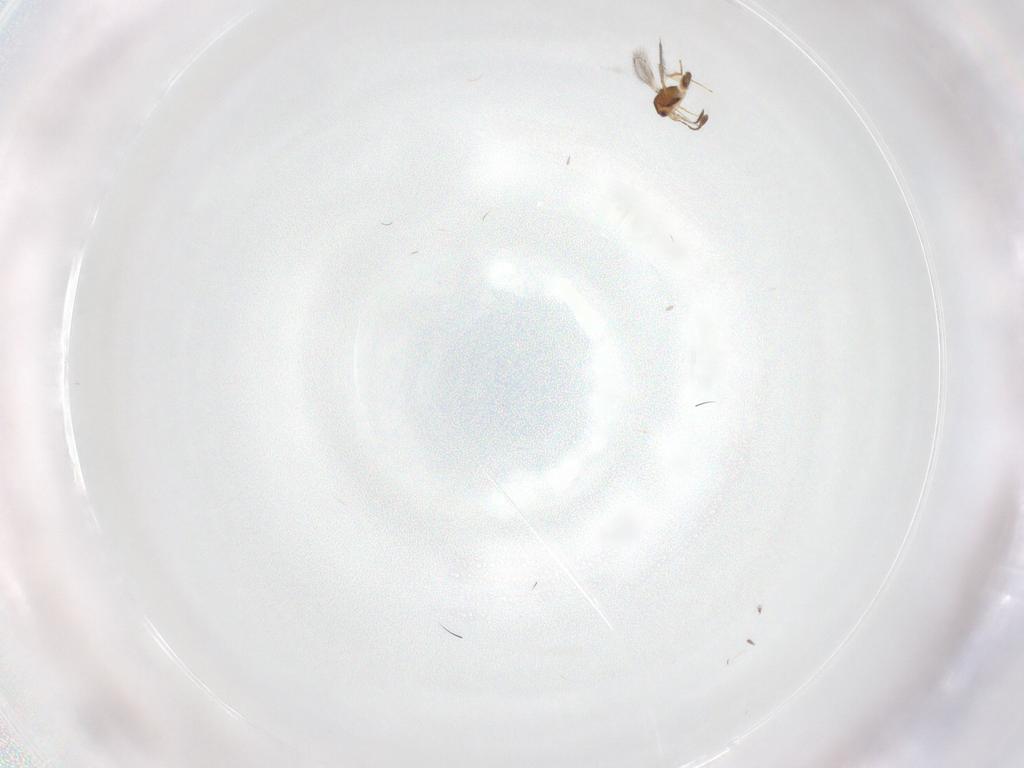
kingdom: Animalia
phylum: Arthropoda
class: Insecta
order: Hymenoptera
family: Mymaridae
